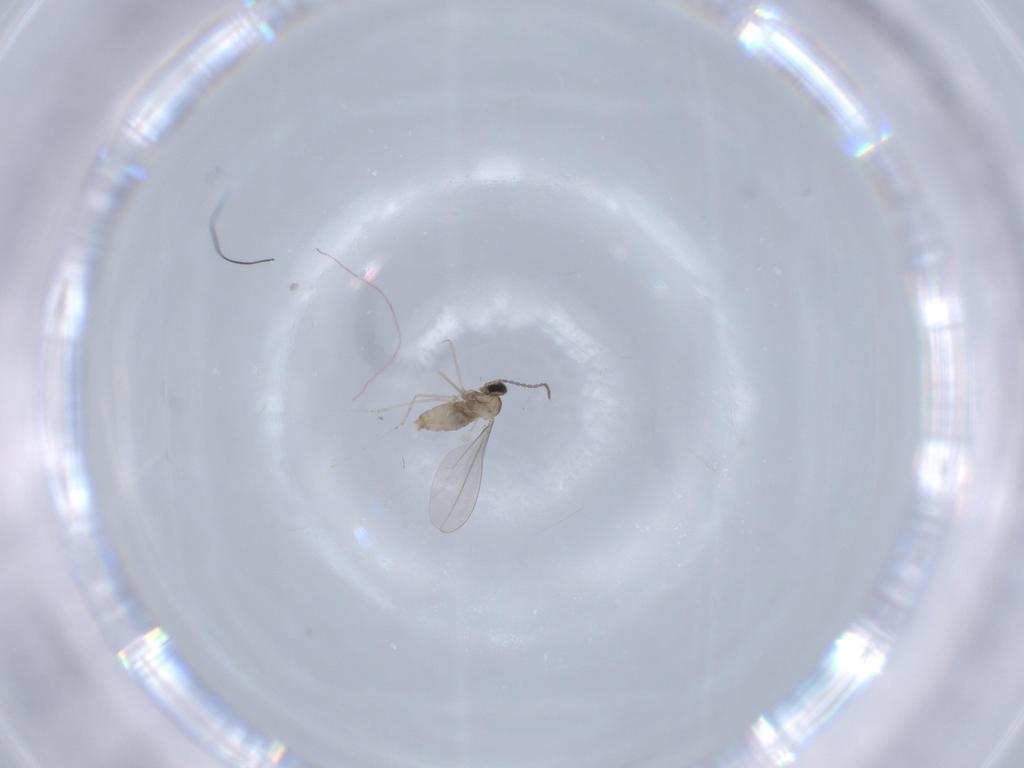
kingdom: Animalia
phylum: Arthropoda
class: Insecta
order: Diptera
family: Cecidomyiidae
